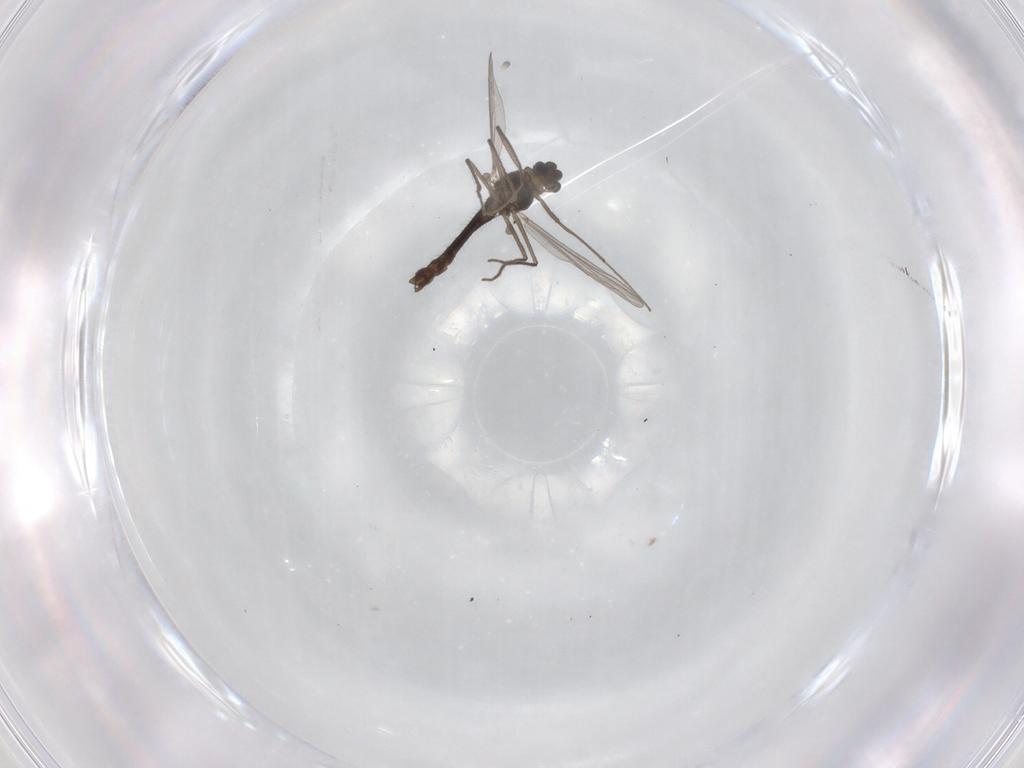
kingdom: Animalia
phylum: Arthropoda
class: Insecta
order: Diptera
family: Chironomidae
